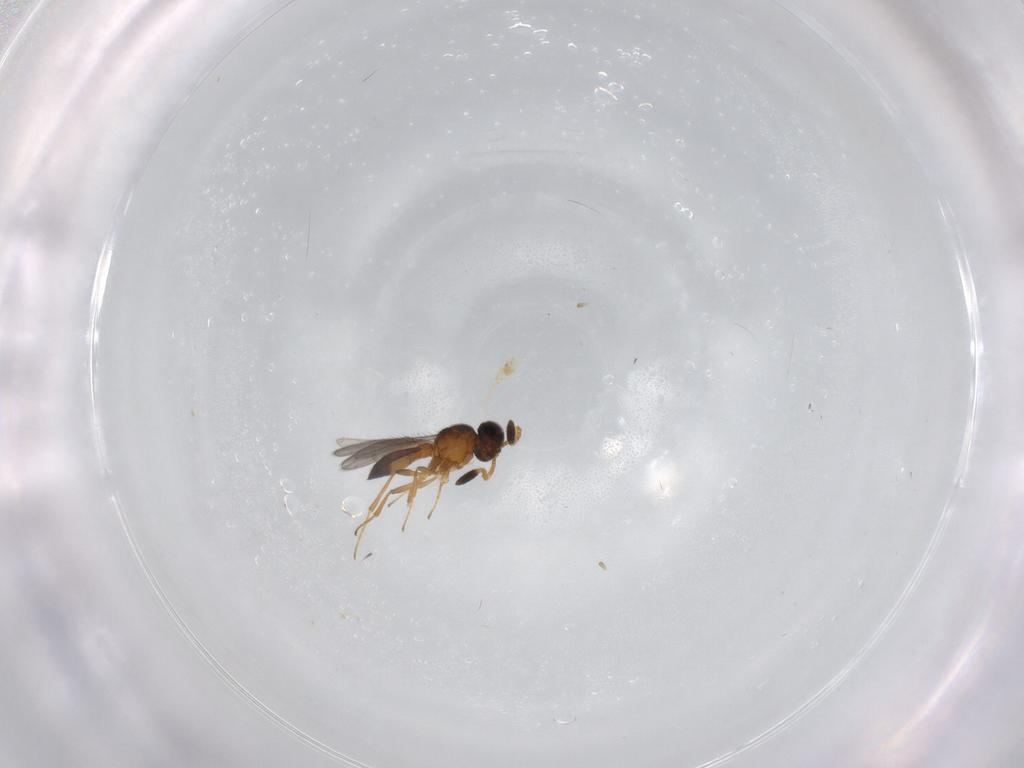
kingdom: Animalia
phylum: Arthropoda
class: Insecta
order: Hymenoptera
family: Scelionidae
